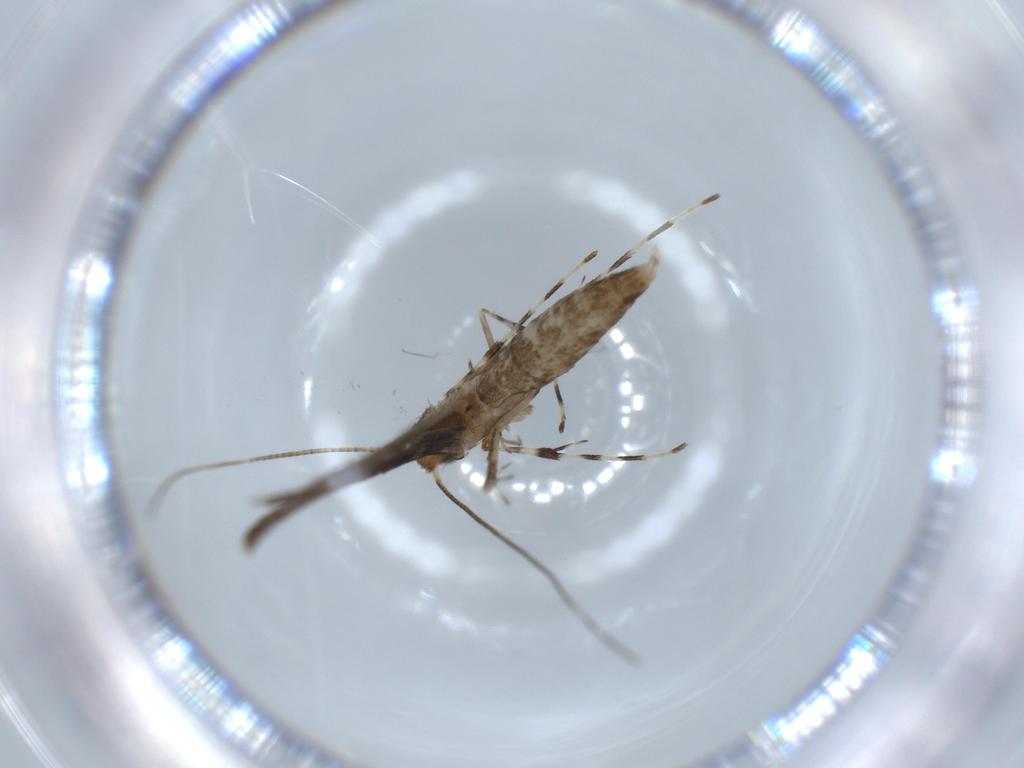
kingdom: Animalia
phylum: Arthropoda
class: Insecta
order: Lepidoptera
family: Gracillariidae
